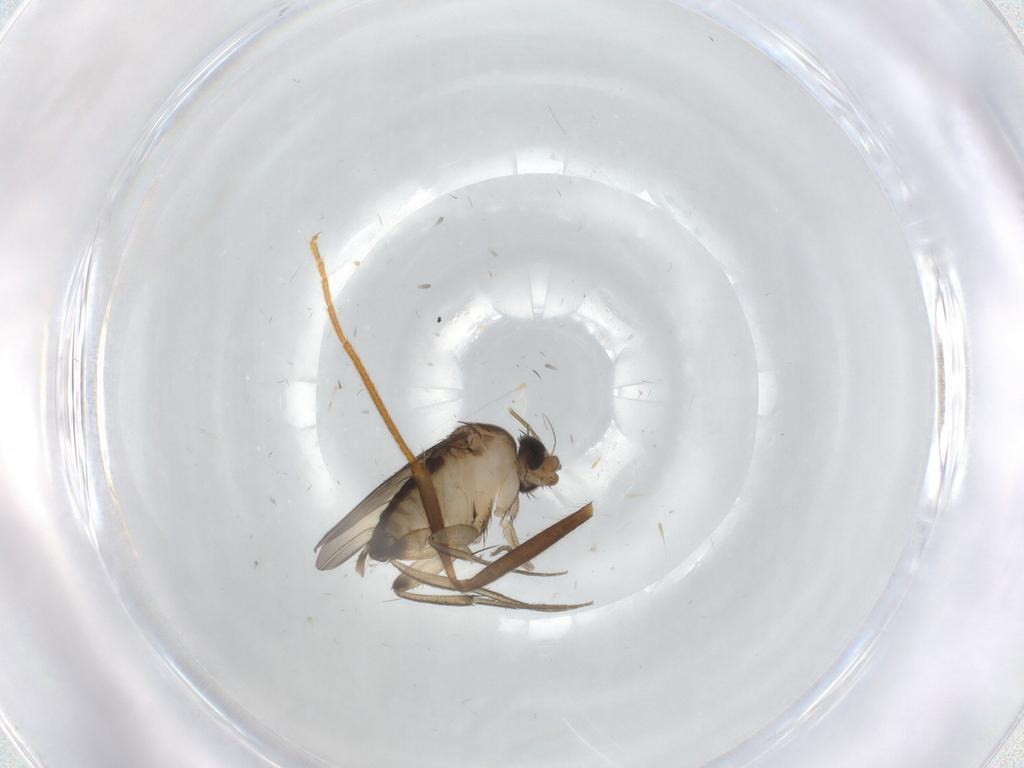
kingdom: Animalia
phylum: Arthropoda
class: Insecta
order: Diptera
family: Phoridae
